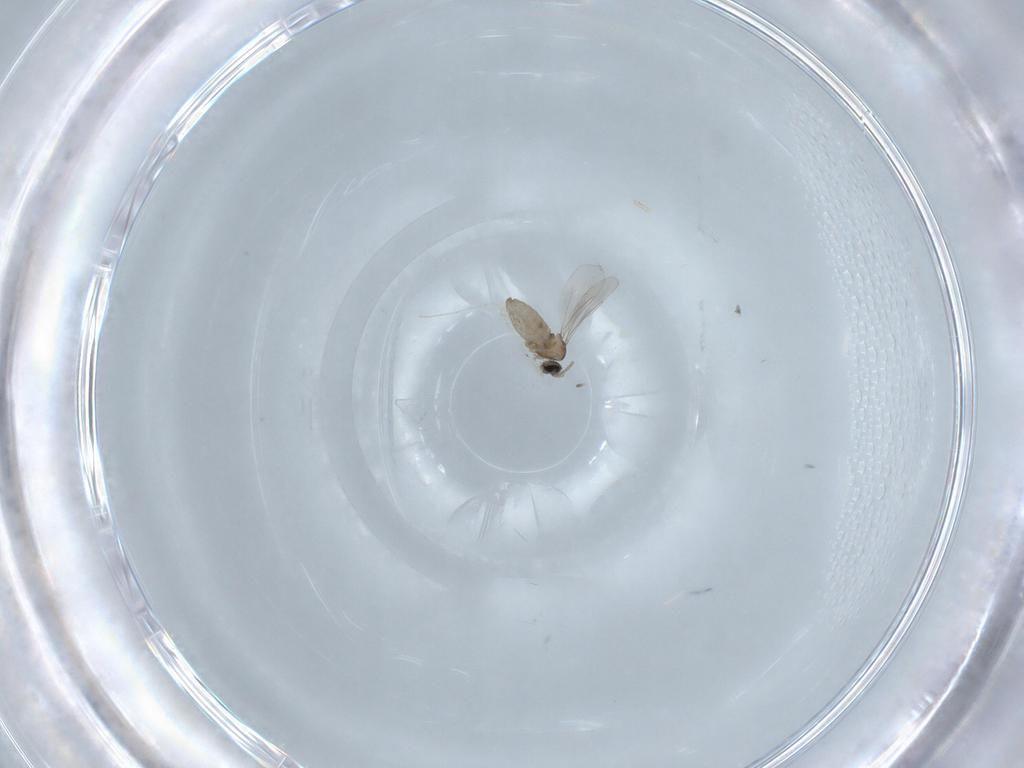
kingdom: Animalia
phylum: Arthropoda
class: Insecta
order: Diptera
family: Cecidomyiidae
